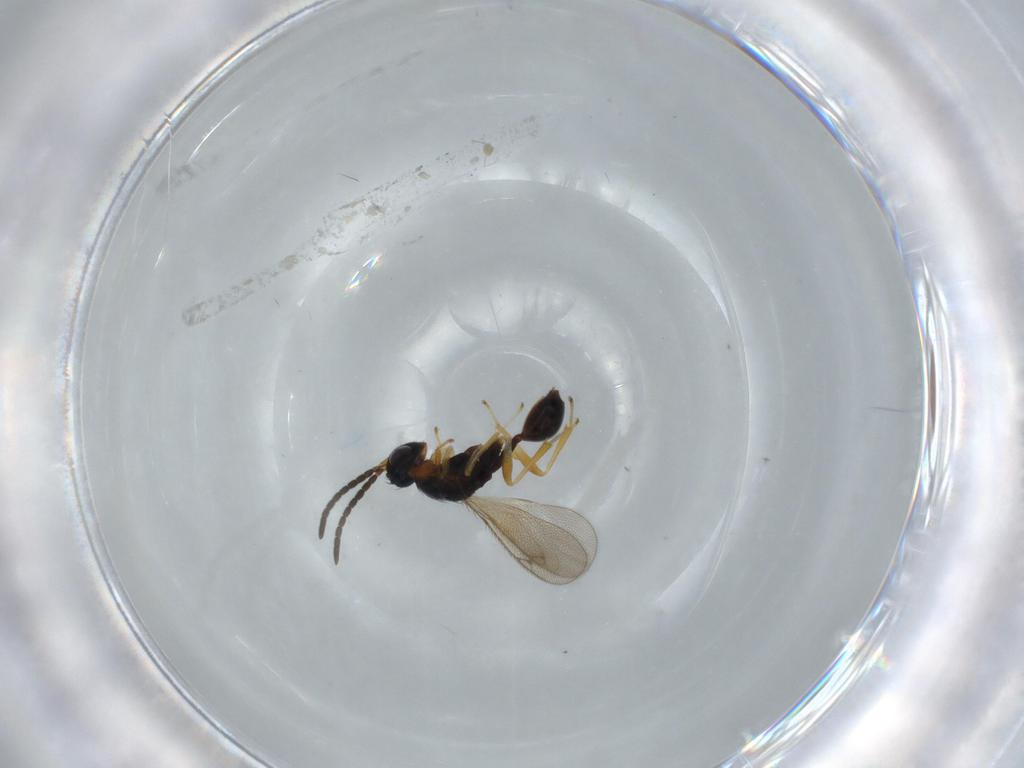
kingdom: Animalia
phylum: Arthropoda
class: Insecta
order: Hymenoptera
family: Diparidae
